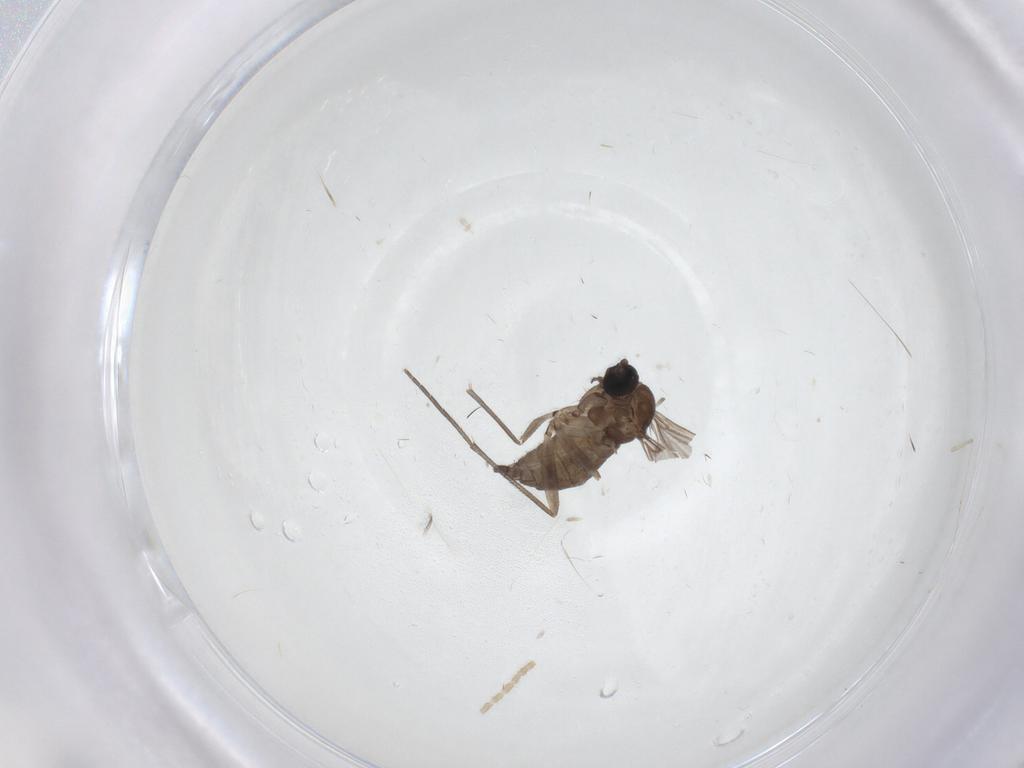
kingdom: Animalia
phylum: Arthropoda
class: Insecta
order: Diptera
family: Sciaridae
